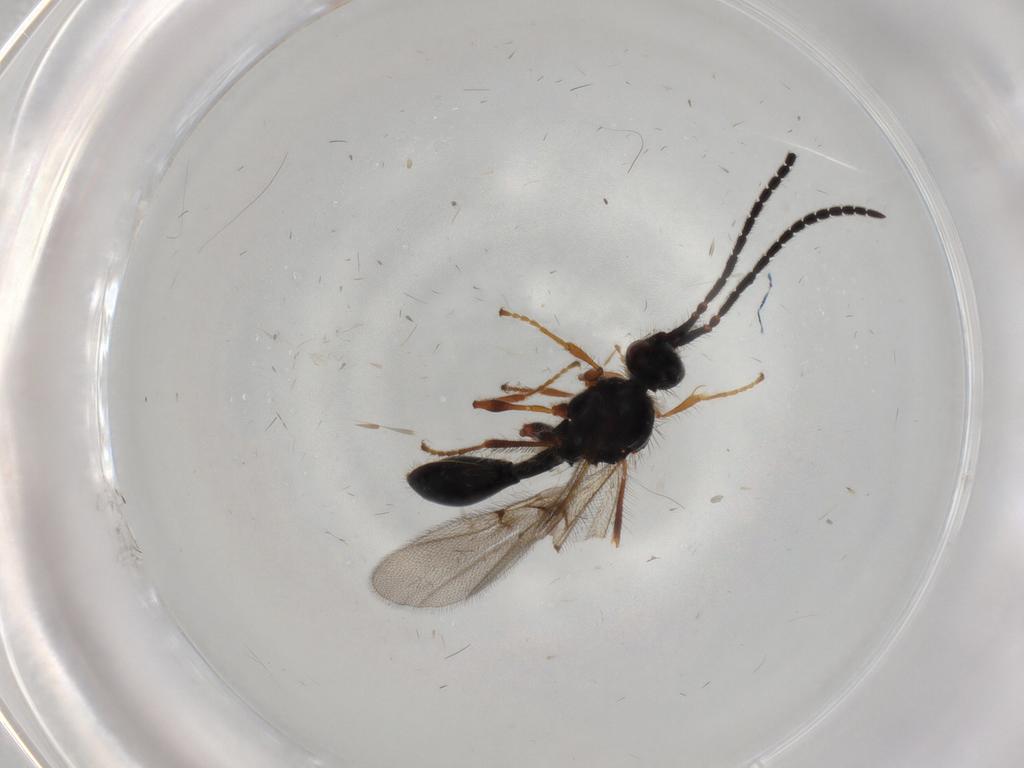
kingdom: Animalia
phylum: Arthropoda
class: Insecta
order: Hymenoptera
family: Diapriidae
